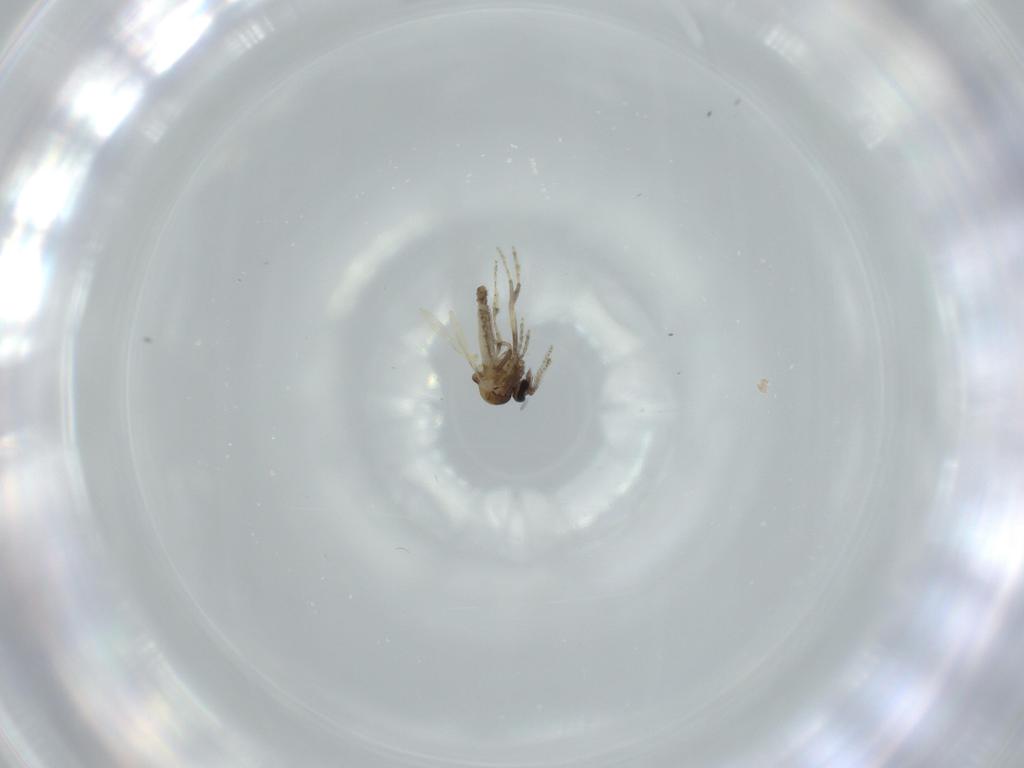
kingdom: Animalia
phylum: Arthropoda
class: Insecta
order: Diptera
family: Ceratopogonidae
